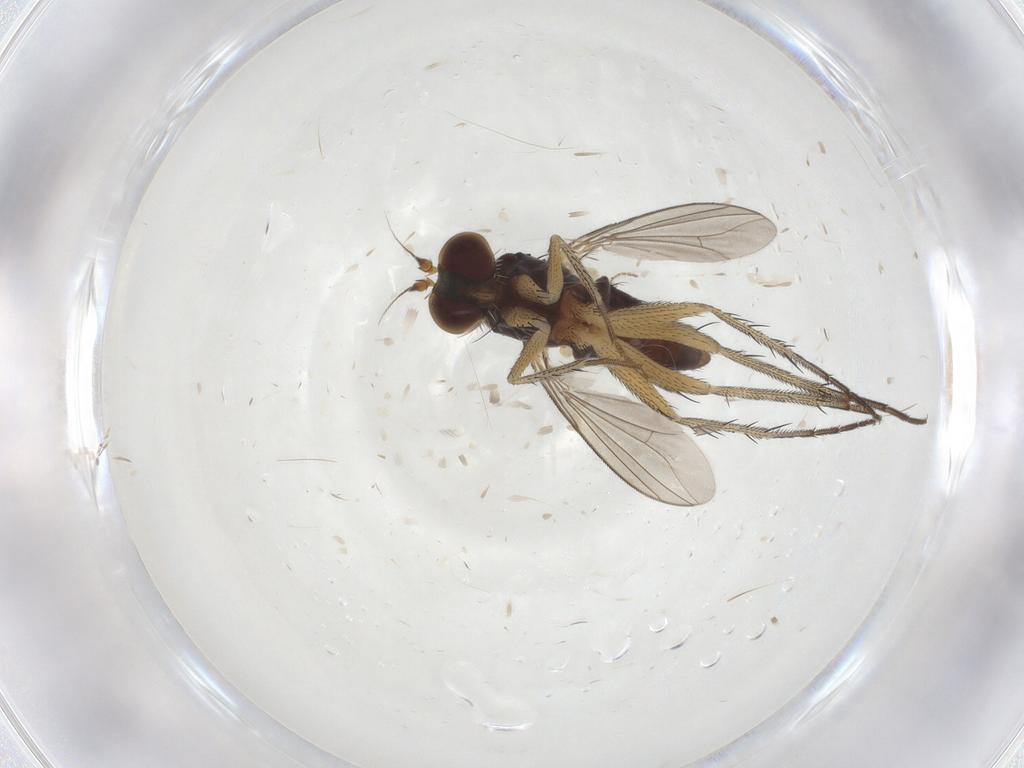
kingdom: Animalia
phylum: Arthropoda
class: Insecta
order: Diptera
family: Dolichopodidae
